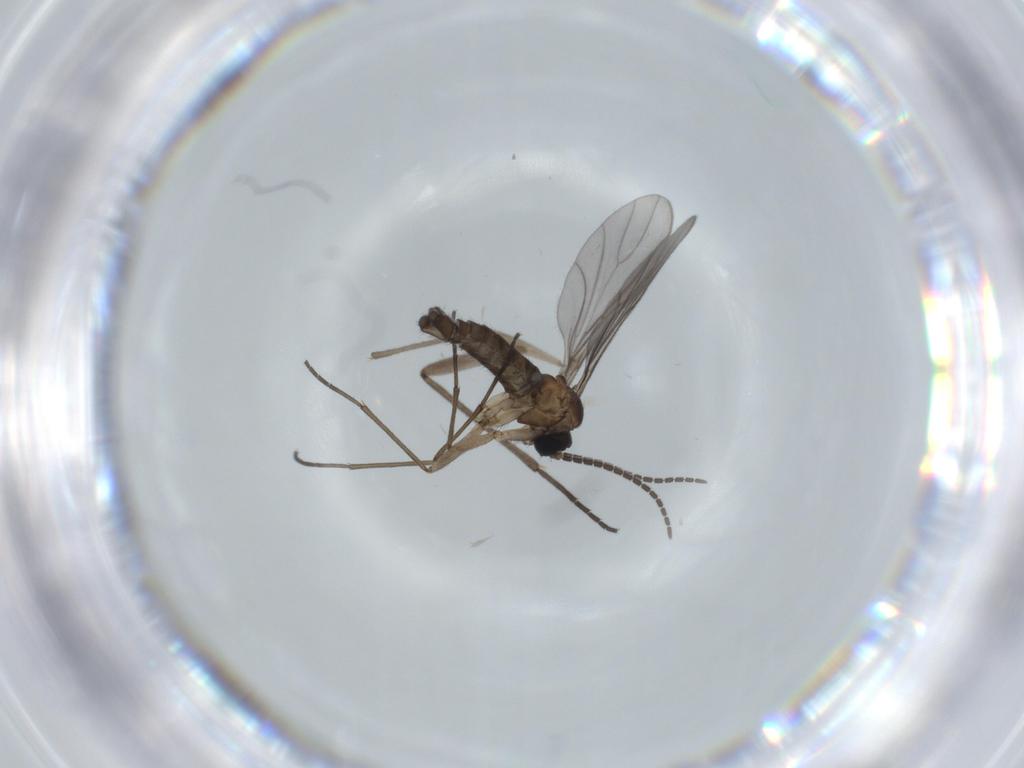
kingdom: Animalia
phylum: Arthropoda
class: Insecta
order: Diptera
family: Sciaridae
